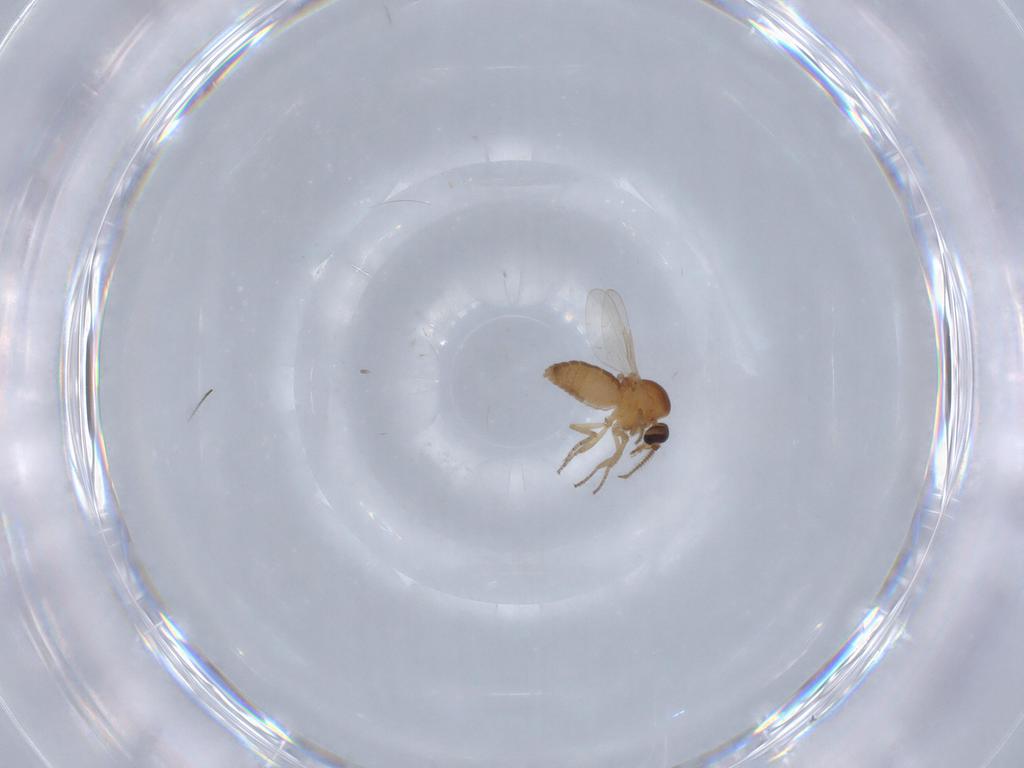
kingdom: Animalia
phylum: Arthropoda
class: Insecta
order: Diptera
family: Ceratopogonidae
